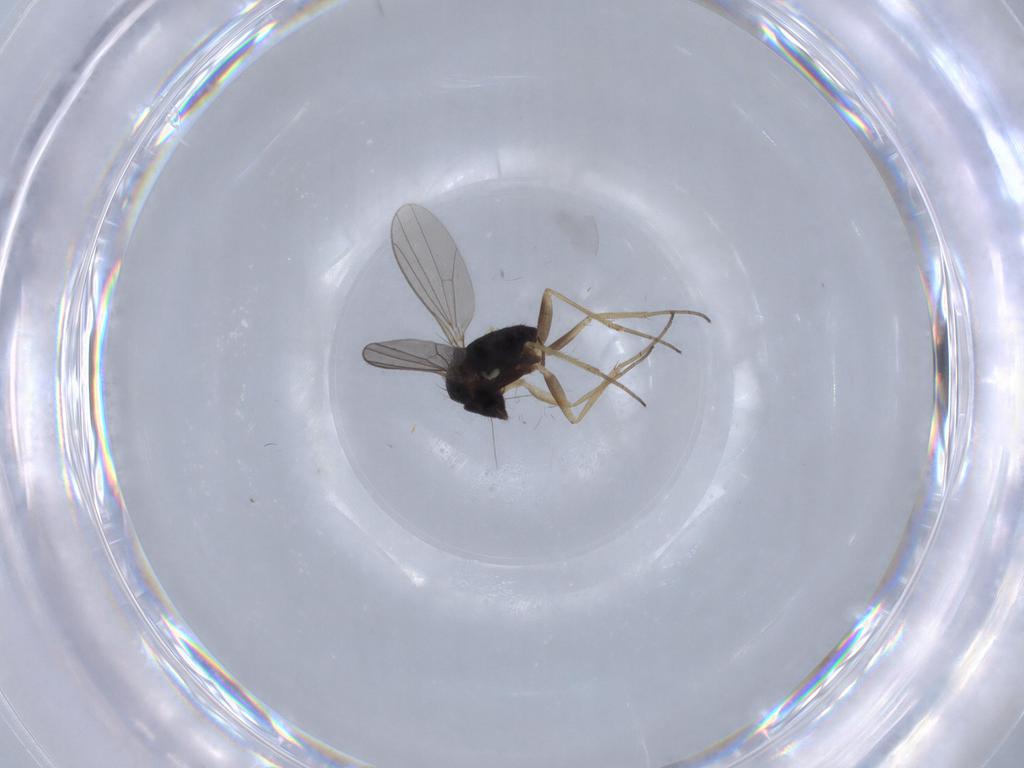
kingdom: Animalia
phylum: Arthropoda
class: Insecta
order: Diptera
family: Dolichopodidae
